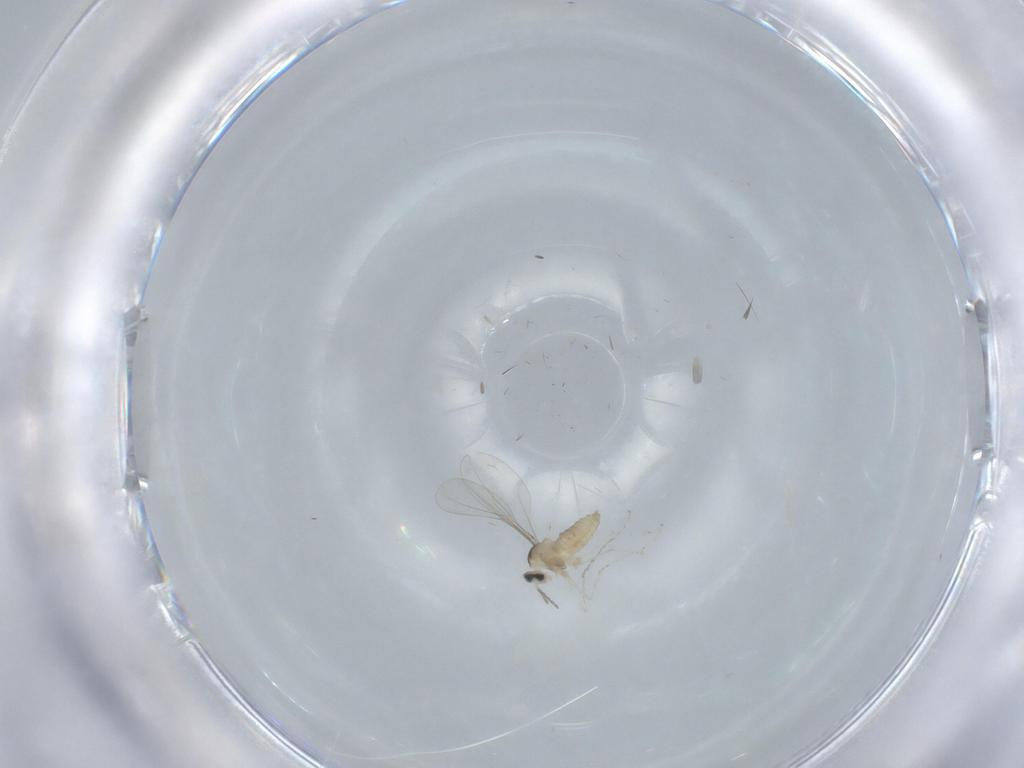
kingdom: Animalia
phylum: Arthropoda
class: Insecta
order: Diptera
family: Cecidomyiidae
